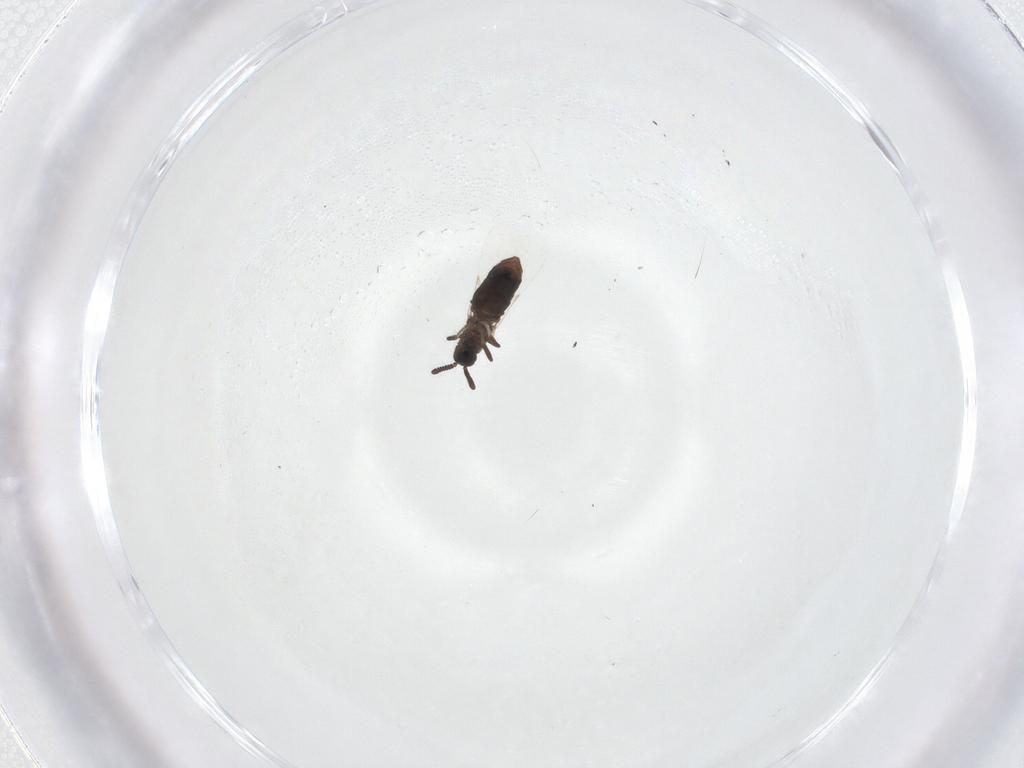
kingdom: Animalia
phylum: Arthropoda
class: Insecta
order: Diptera
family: Scatopsidae
